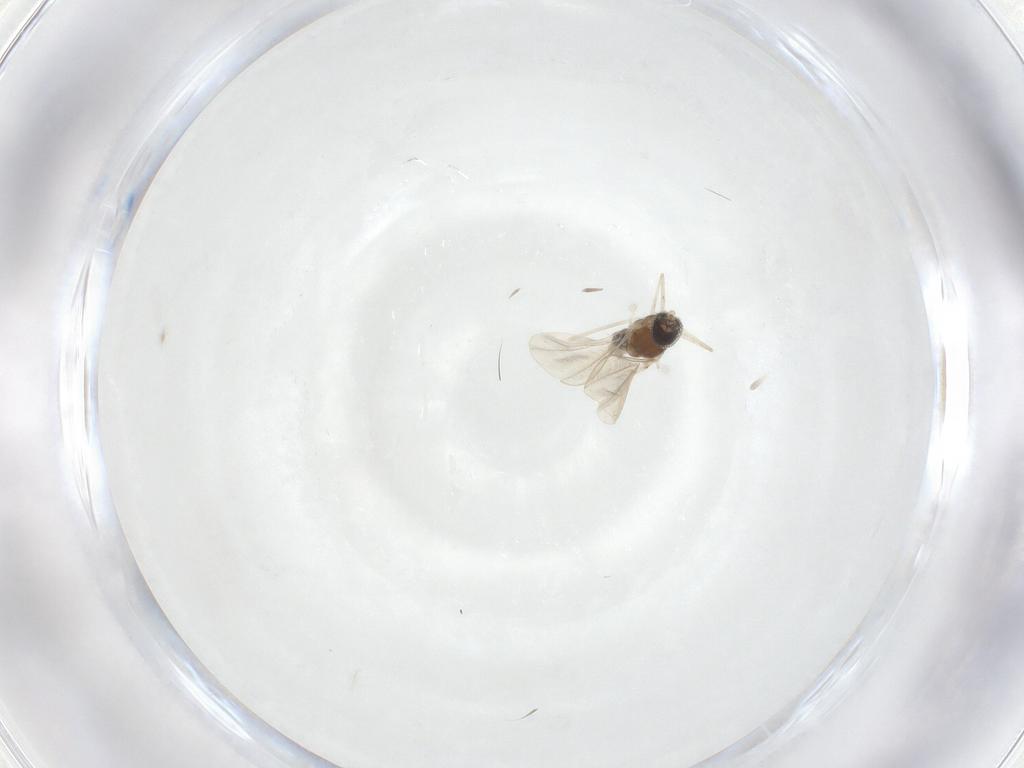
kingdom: Animalia
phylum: Arthropoda
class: Insecta
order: Diptera
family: Cecidomyiidae
